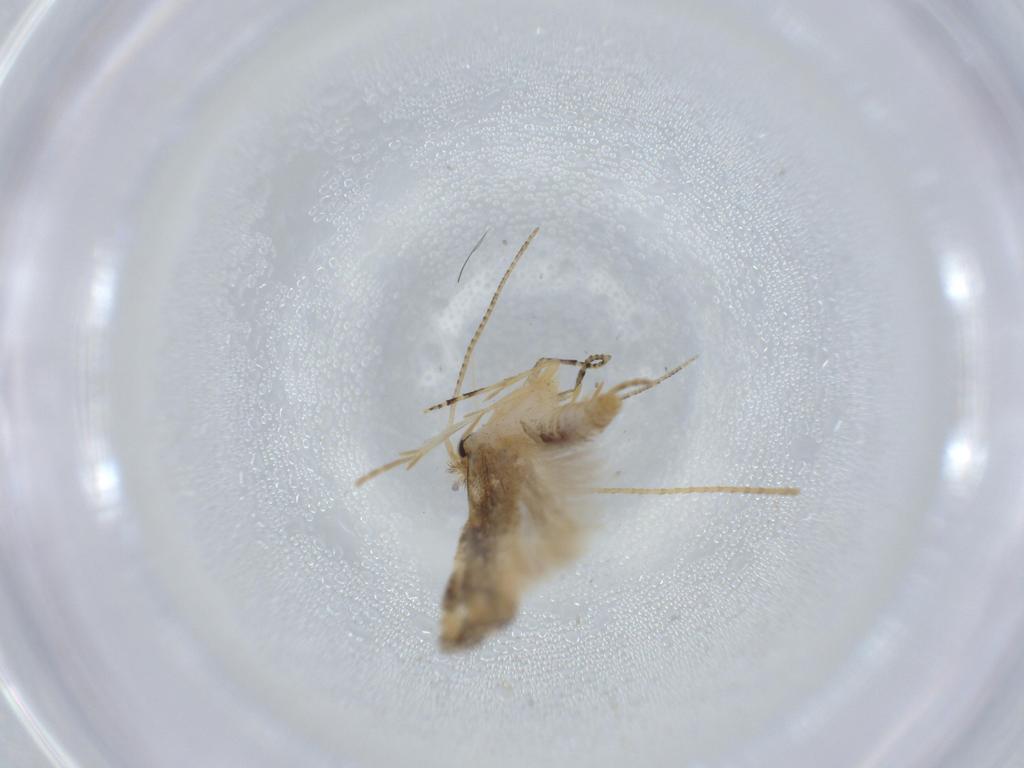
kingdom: Animalia
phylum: Arthropoda
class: Insecta
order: Lepidoptera
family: Bucculatricidae
